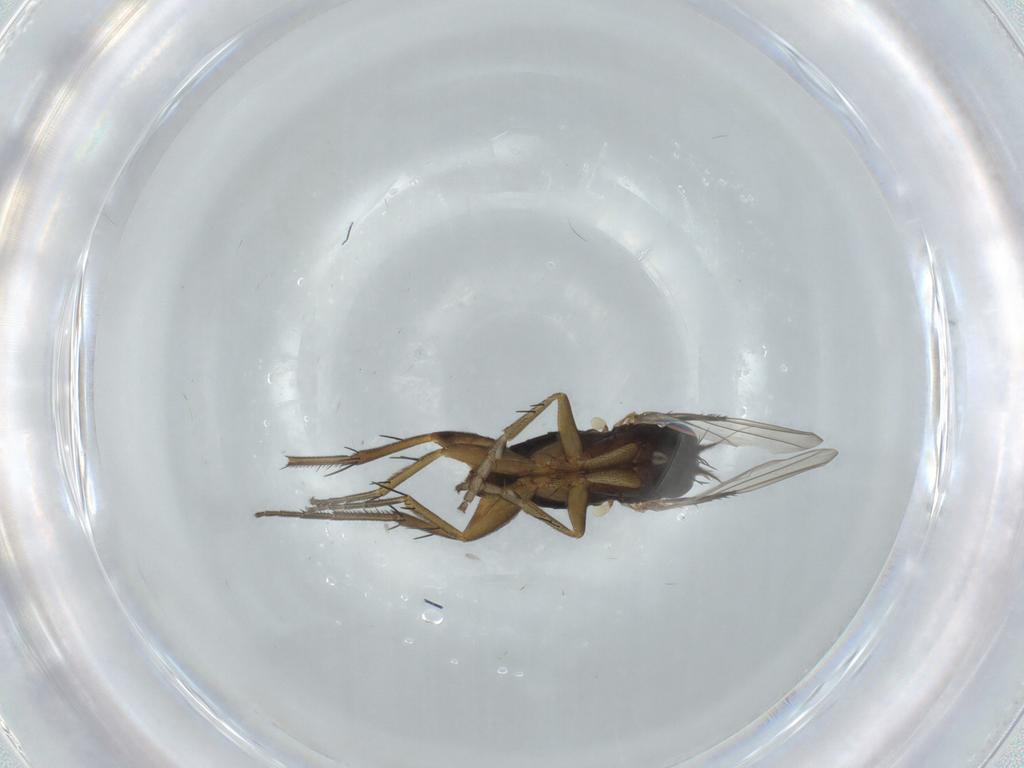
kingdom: Animalia
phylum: Arthropoda
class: Insecta
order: Diptera
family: Phoridae
